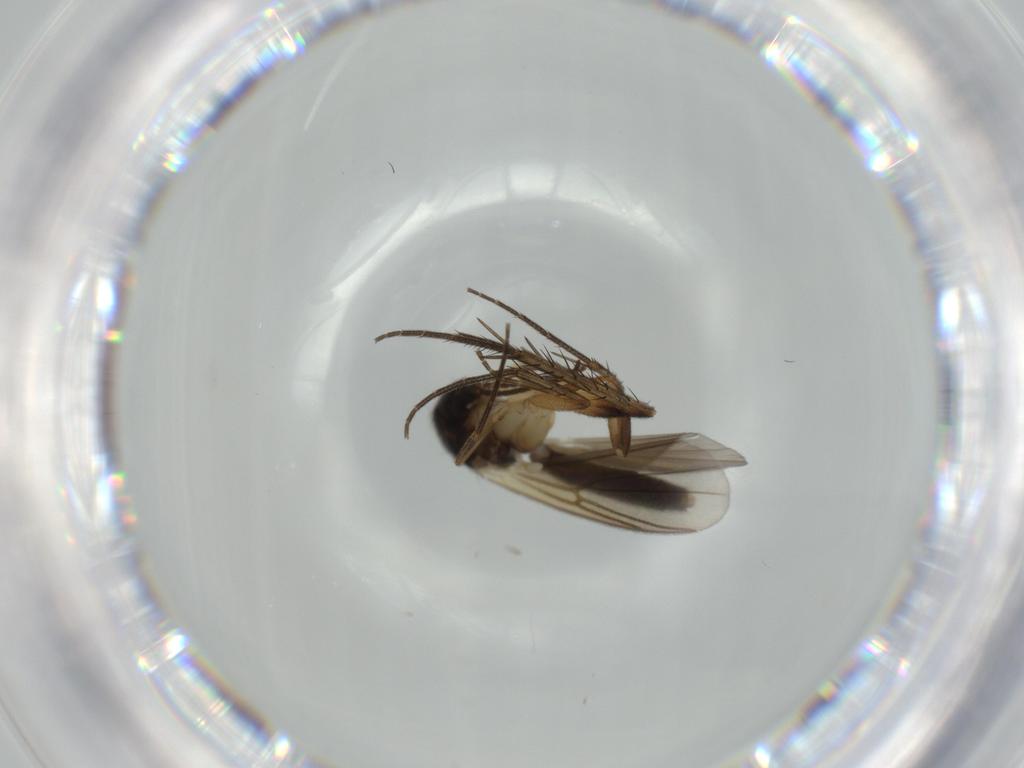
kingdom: Animalia
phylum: Arthropoda
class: Insecta
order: Diptera
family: Mycetophilidae
